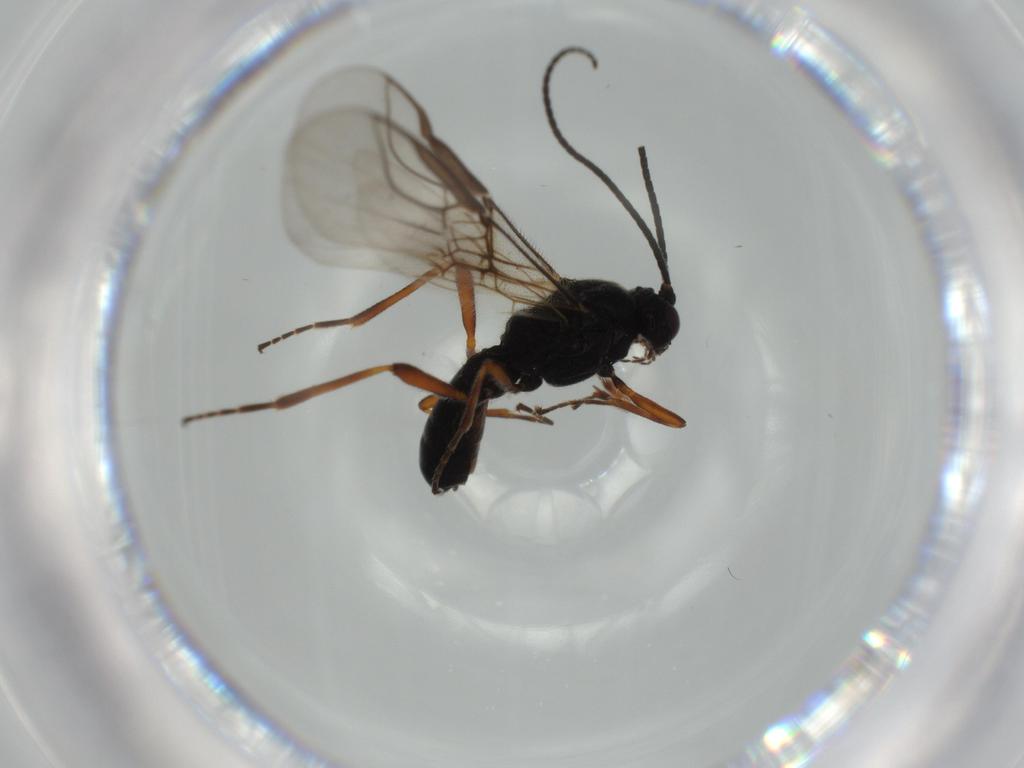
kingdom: Animalia
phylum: Arthropoda
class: Insecta
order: Hymenoptera
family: Braconidae
